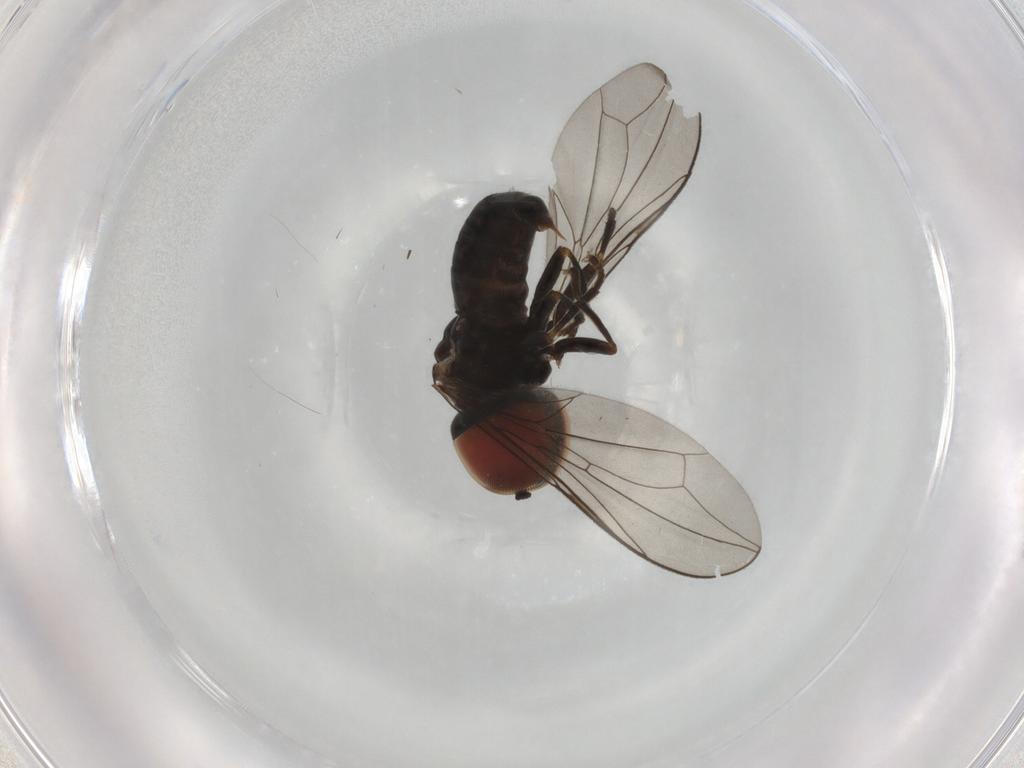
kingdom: Animalia
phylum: Arthropoda
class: Insecta
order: Diptera
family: Pipunculidae
